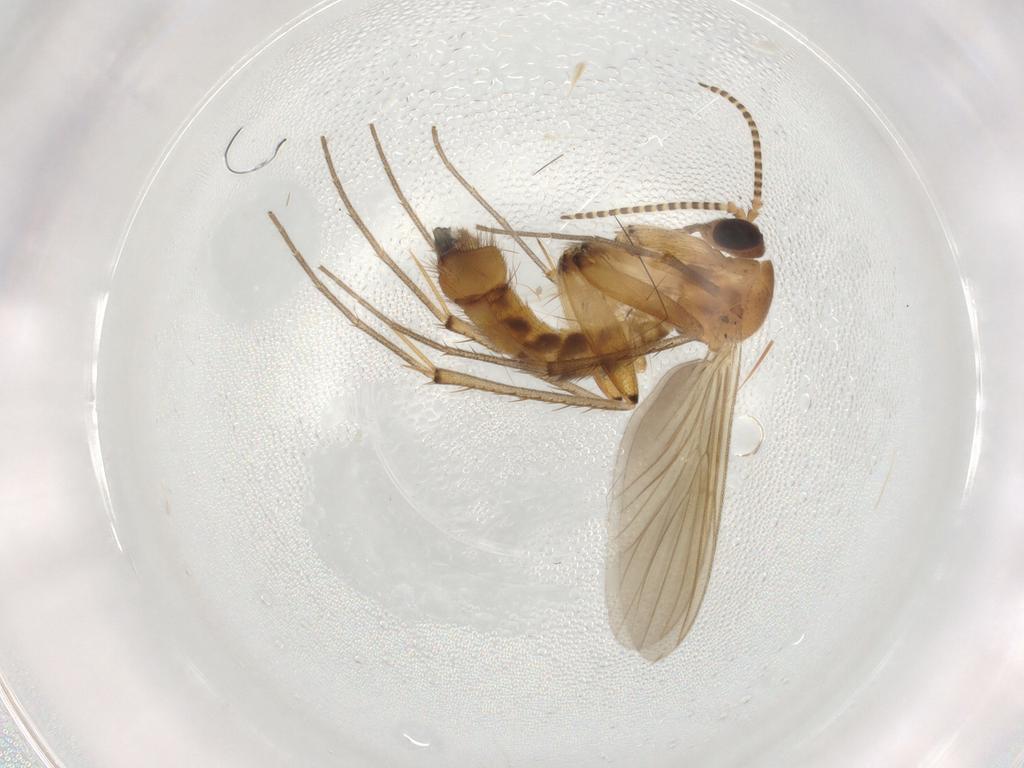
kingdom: Animalia
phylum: Arthropoda
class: Insecta
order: Diptera
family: Mycetophilidae
